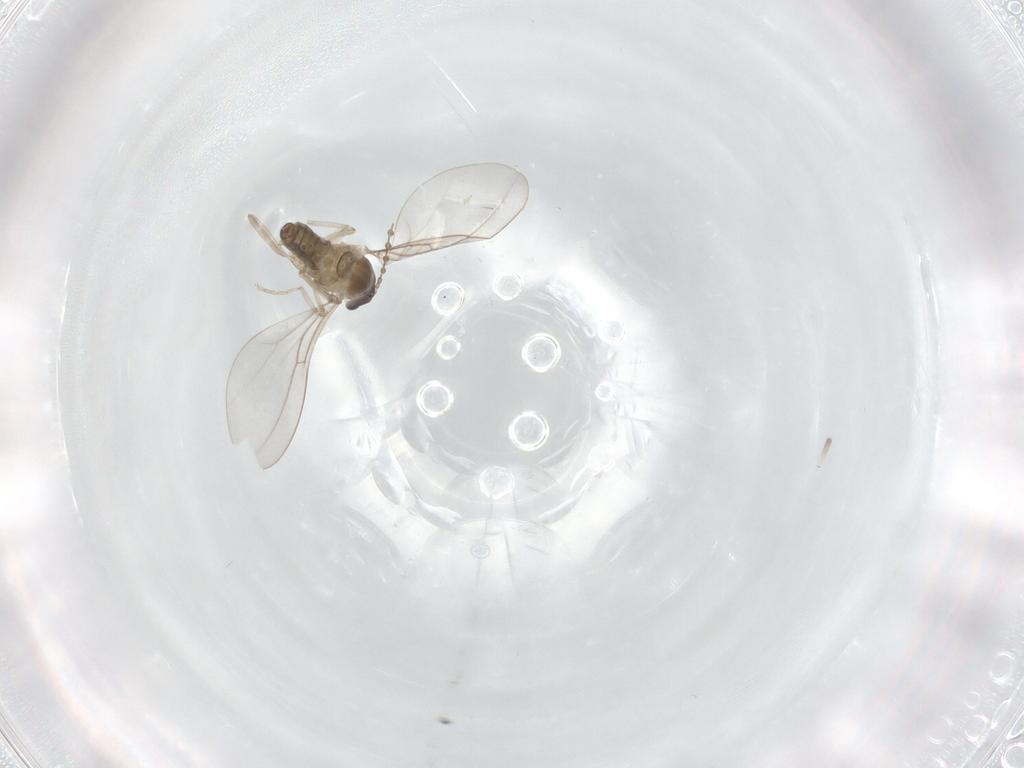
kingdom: Animalia
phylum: Arthropoda
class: Insecta
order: Diptera
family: Cecidomyiidae
